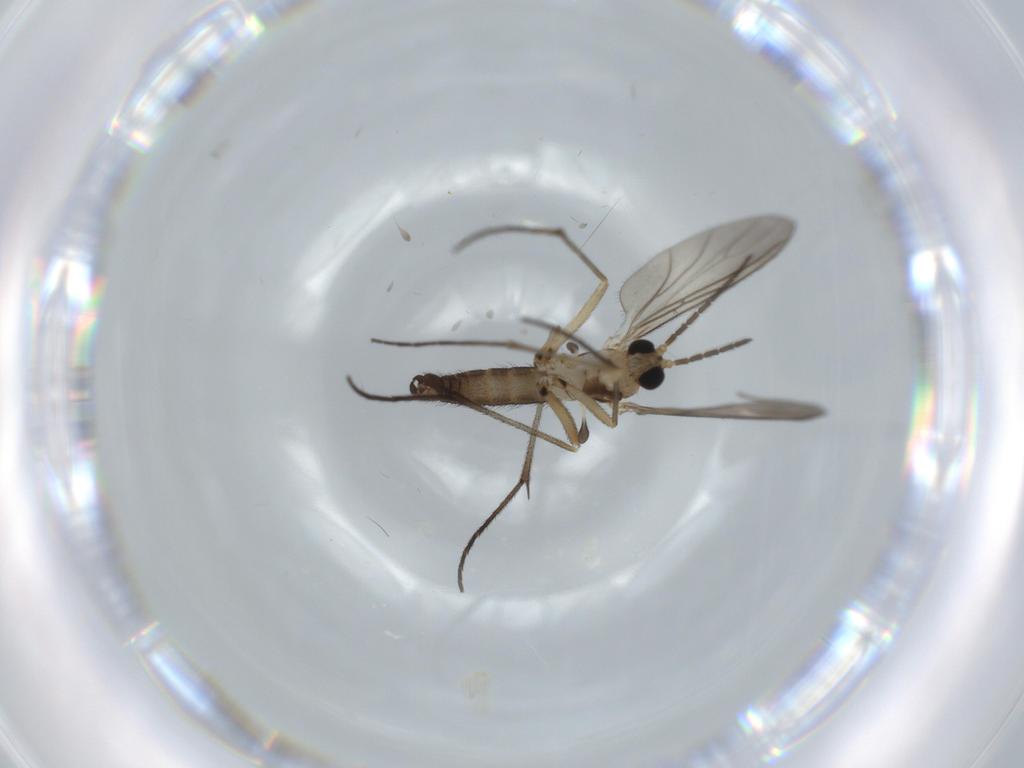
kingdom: Animalia
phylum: Arthropoda
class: Insecta
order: Diptera
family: Sciaridae
